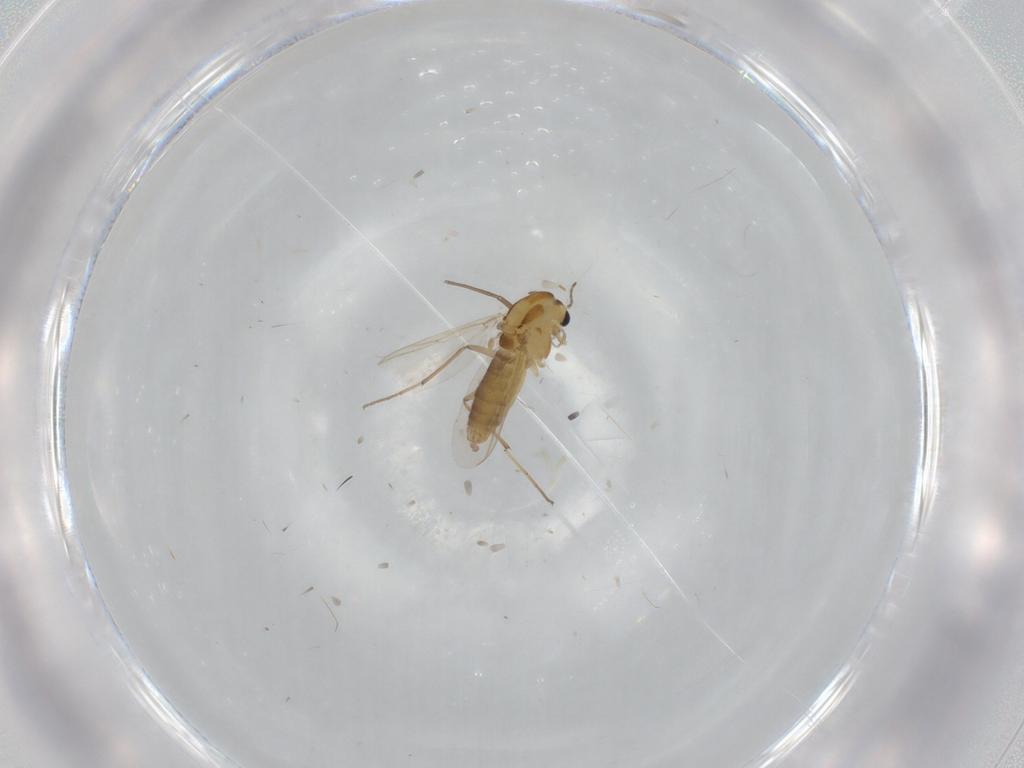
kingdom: Animalia
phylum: Arthropoda
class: Insecta
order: Diptera
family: Chironomidae
